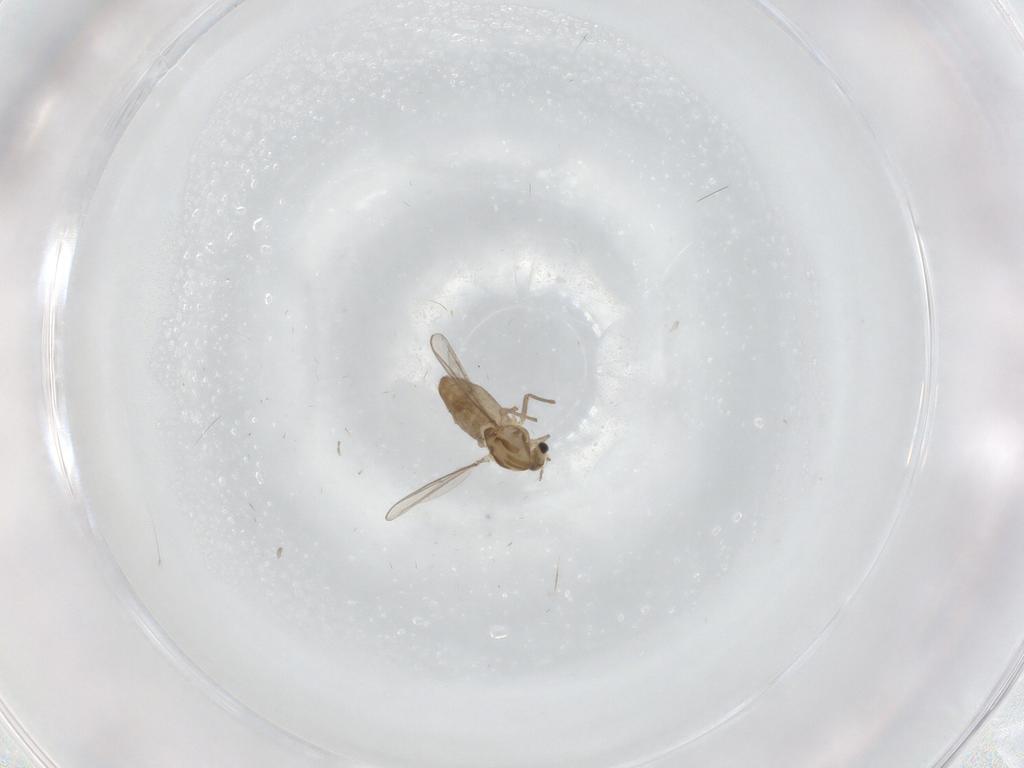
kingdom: Animalia
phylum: Arthropoda
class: Insecta
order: Diptera
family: Chironomidae
